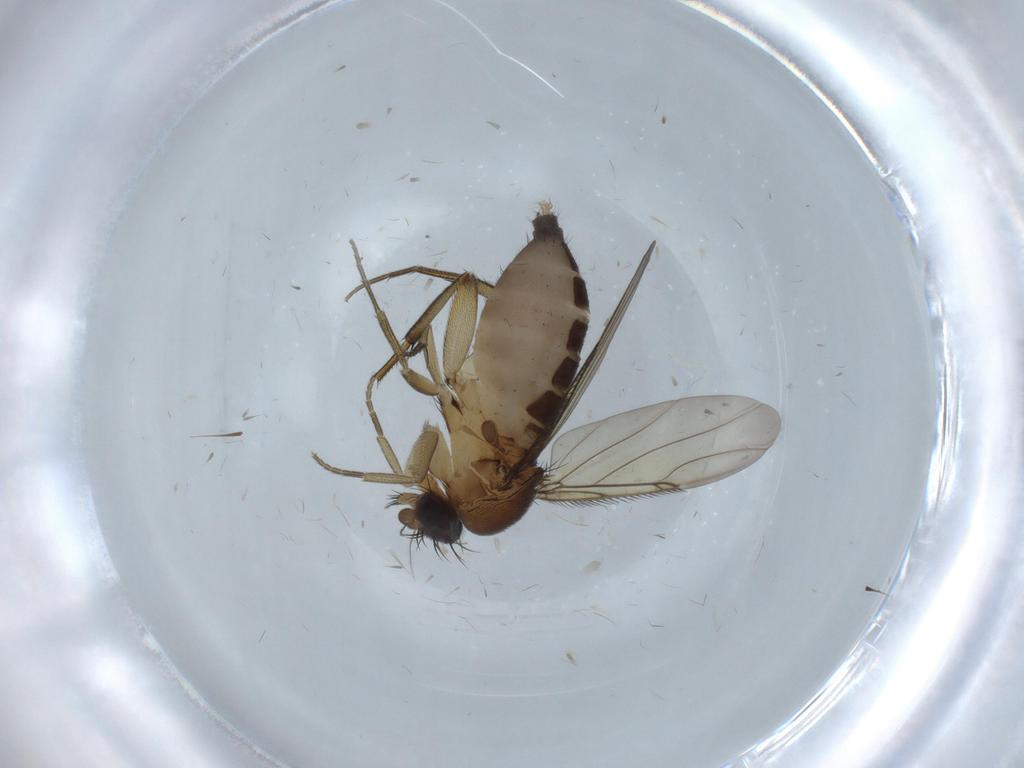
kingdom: Animalia
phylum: Arthropoda
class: Insecta
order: Diptera
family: Phoridae
